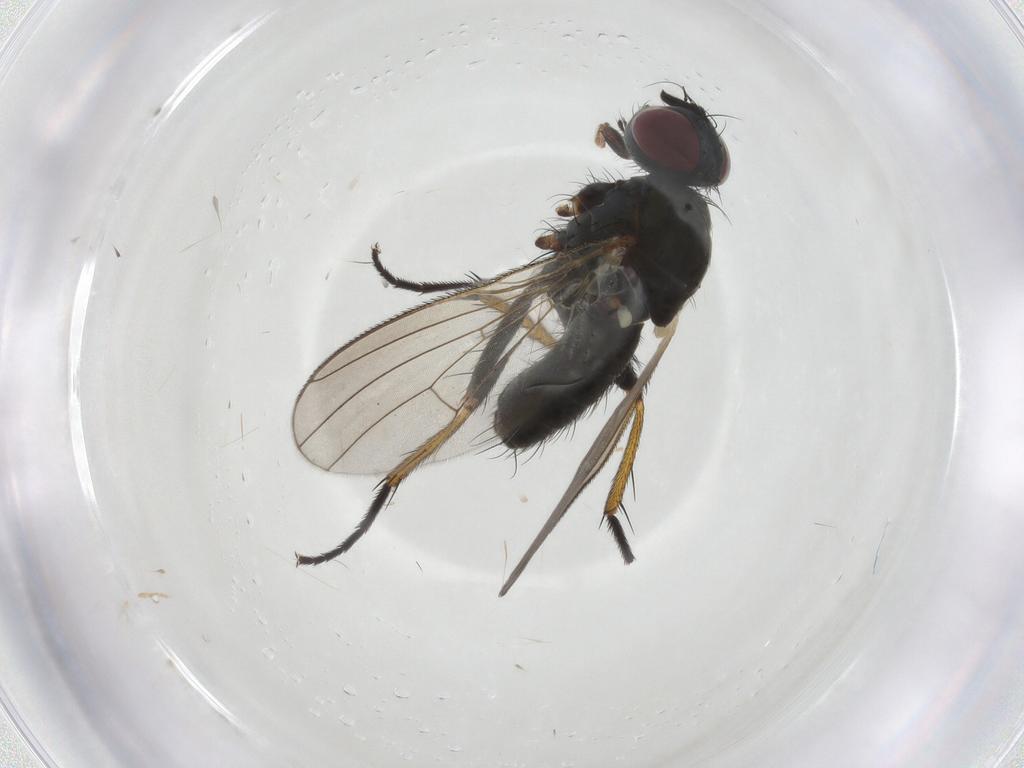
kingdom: Animalia
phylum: Arthropoda
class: Insecta
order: Diptera
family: Muscidae
